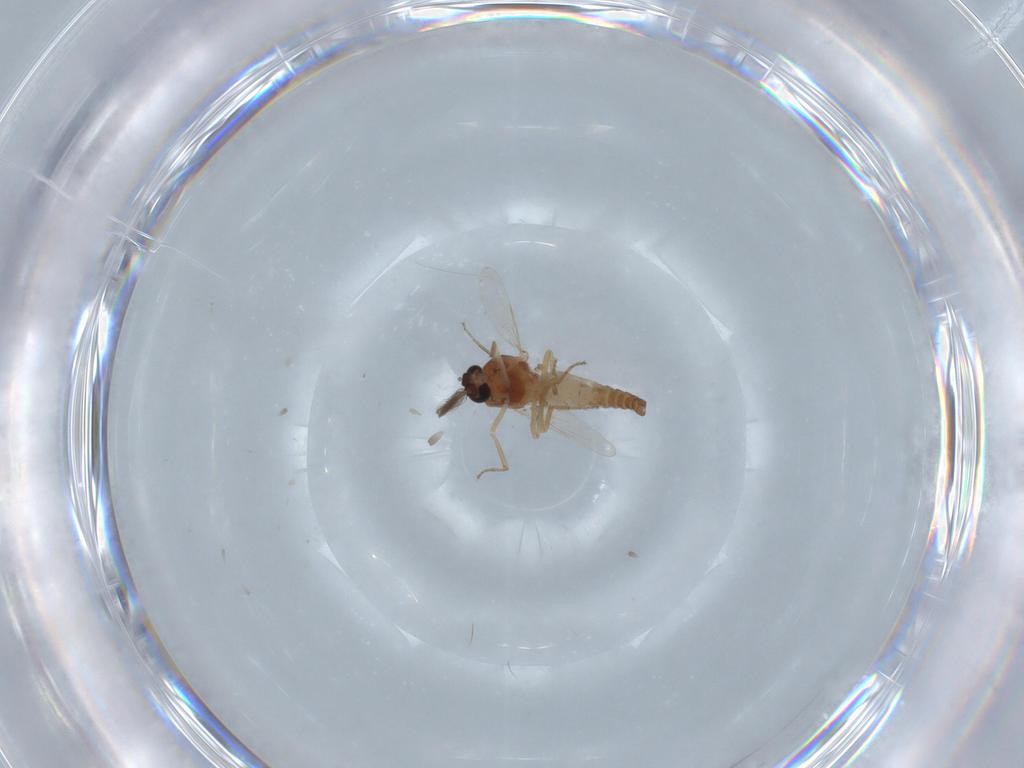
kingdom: Animalia
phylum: Arthropoda
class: Insecta
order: Diptera
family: Ceratopogonidae
